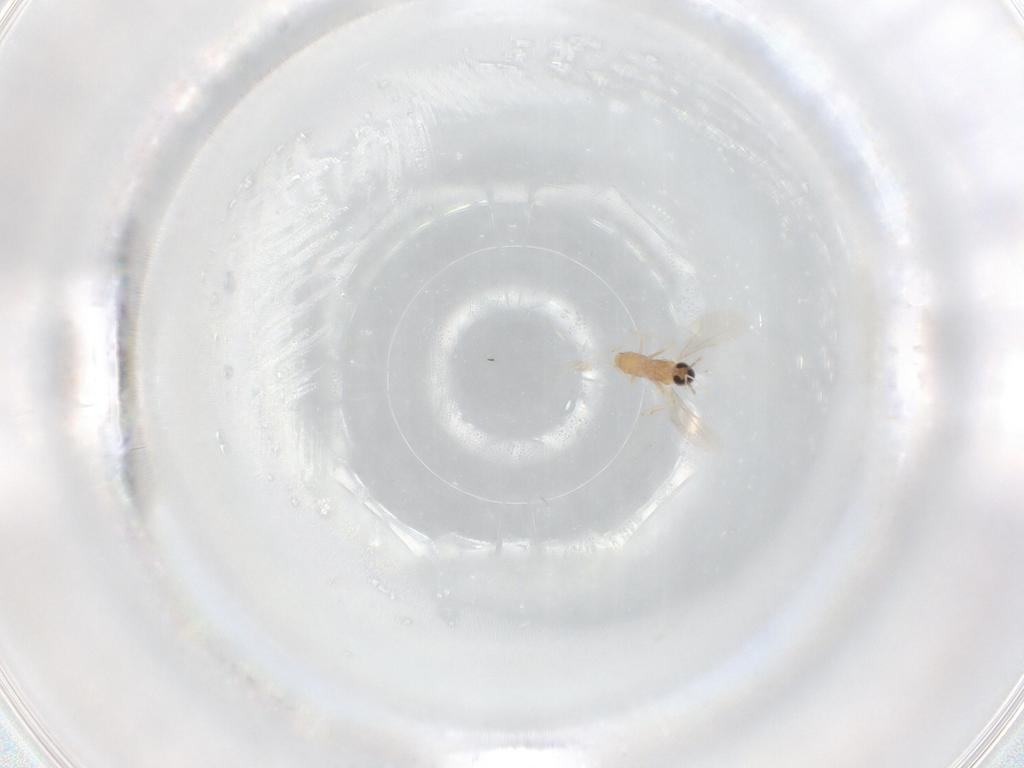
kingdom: Animalia
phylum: Arthropoda
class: Insecta
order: Diptera
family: Cecidomyiidae
